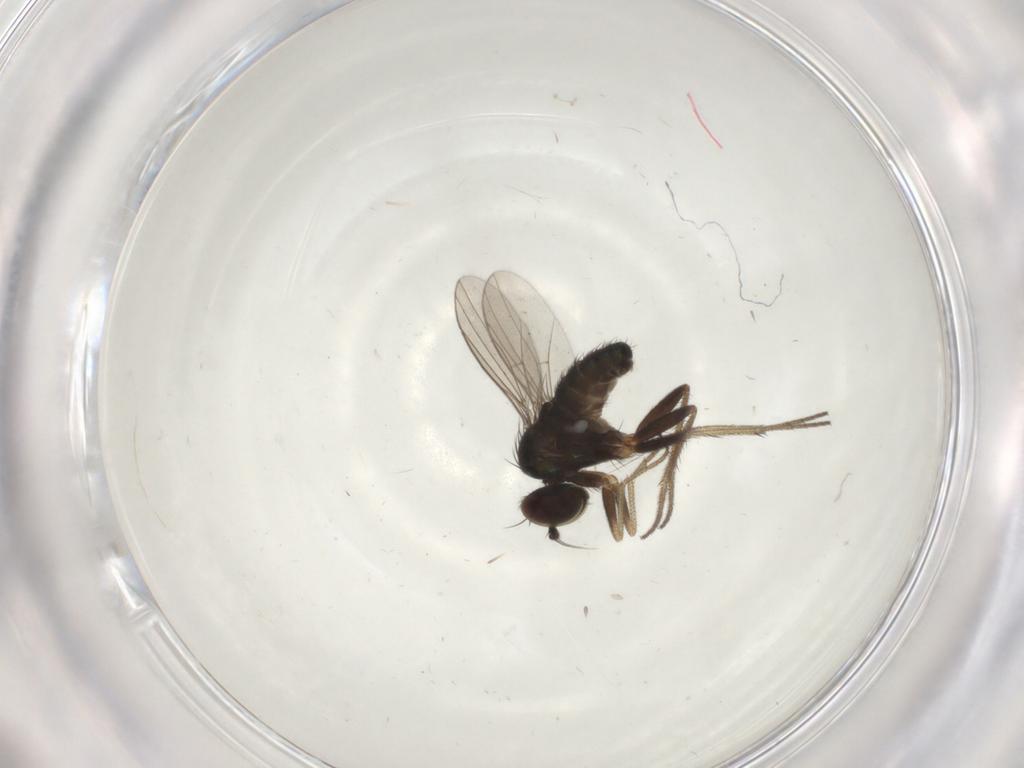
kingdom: Animalia
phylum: Arthropoda
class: Insecta
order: Diptera
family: Dolichopodidae
